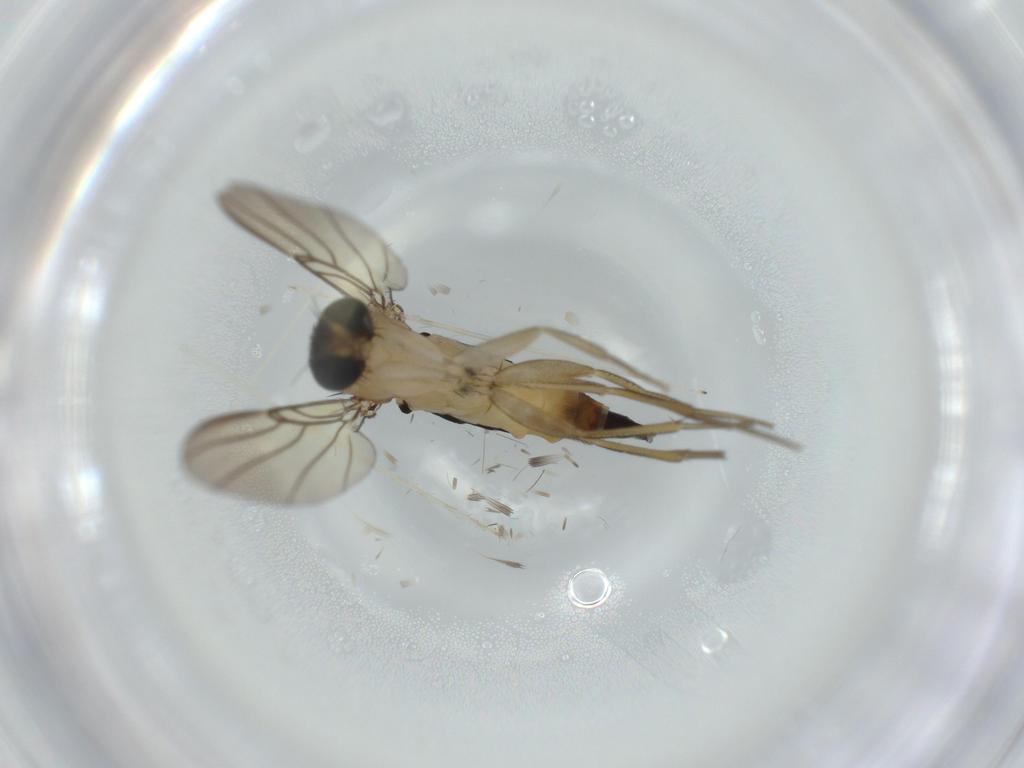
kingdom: Animalia
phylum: Arthropoda
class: Insecta
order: Diptera
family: Phoridae
